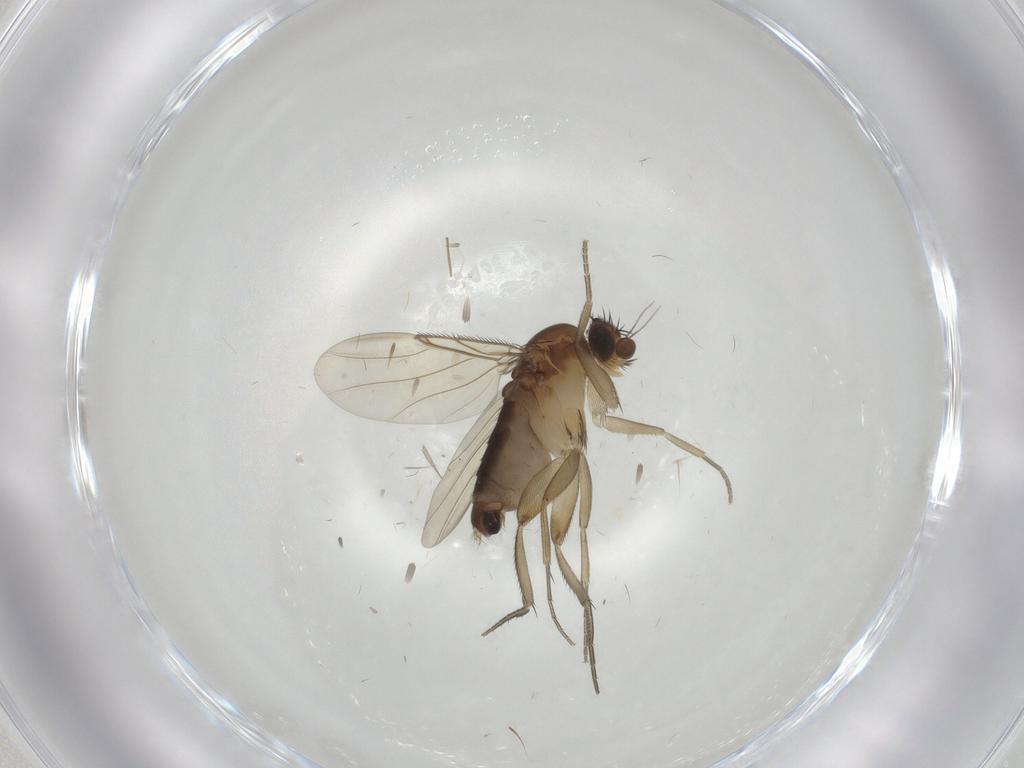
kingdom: Animalia
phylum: Arthropoda
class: Insecta
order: Diptera
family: Phoridae
